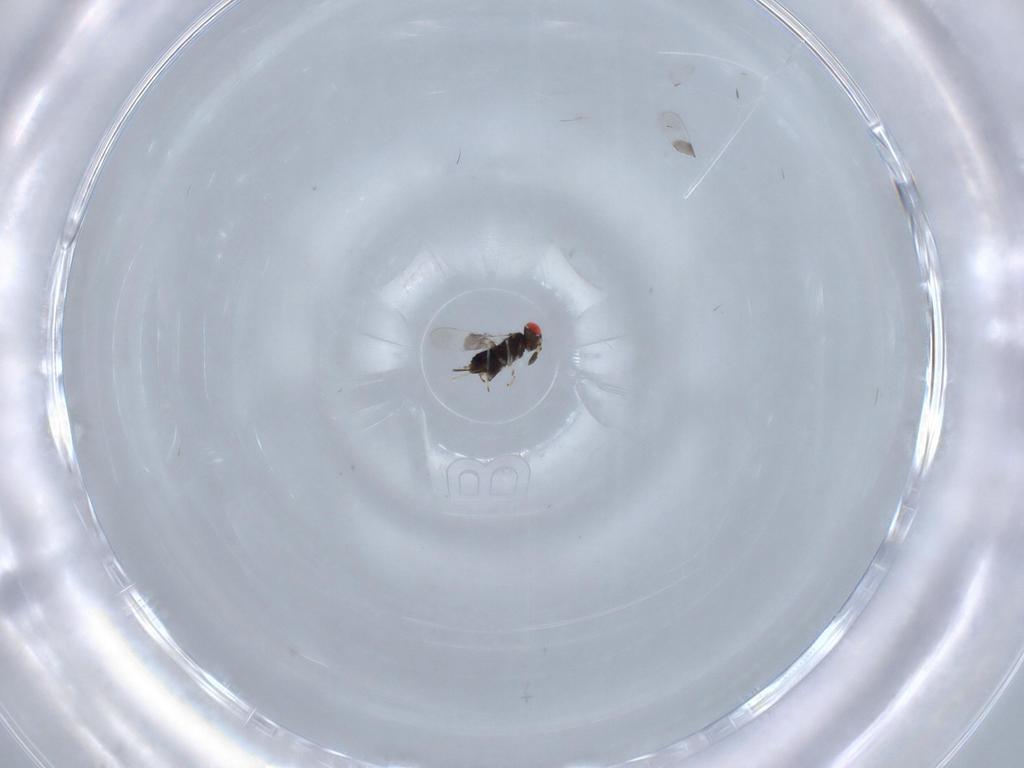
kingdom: Animalia
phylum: Arthropoda
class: Insecta
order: Hymenoptera
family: Azotidae
